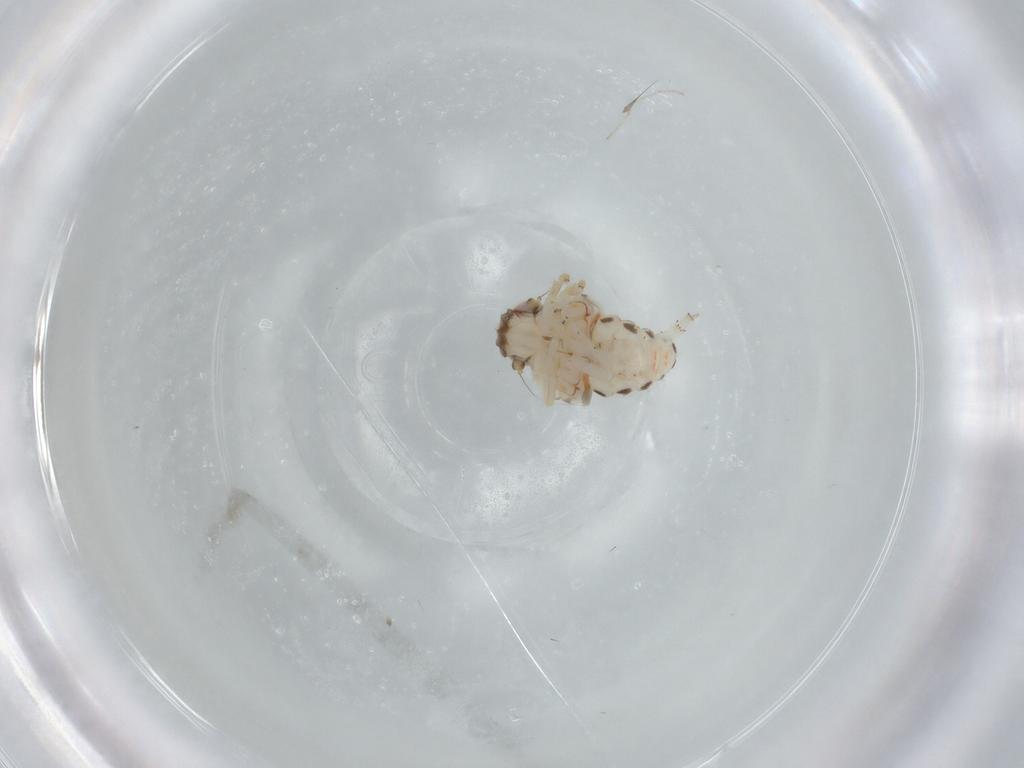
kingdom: Animalia
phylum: Arthropoda
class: Insecta
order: Hemiptera
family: Nogodinidae
